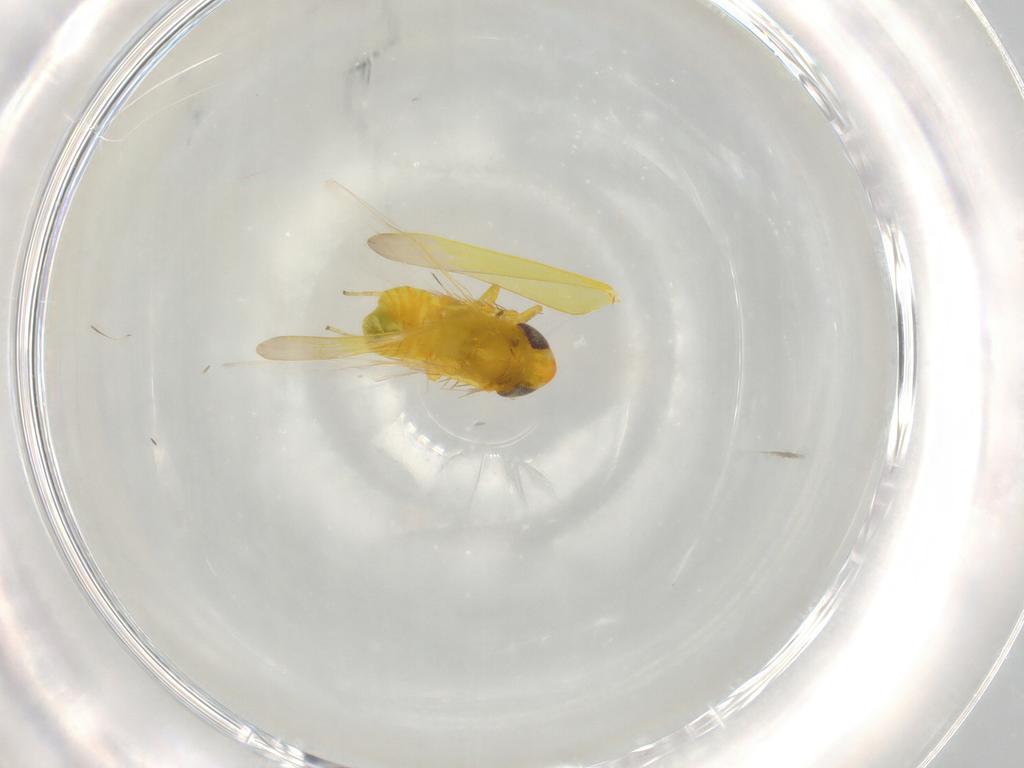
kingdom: Animalia
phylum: Arthropoda
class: Insecta
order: Hemiptera
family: Cicadellidae
